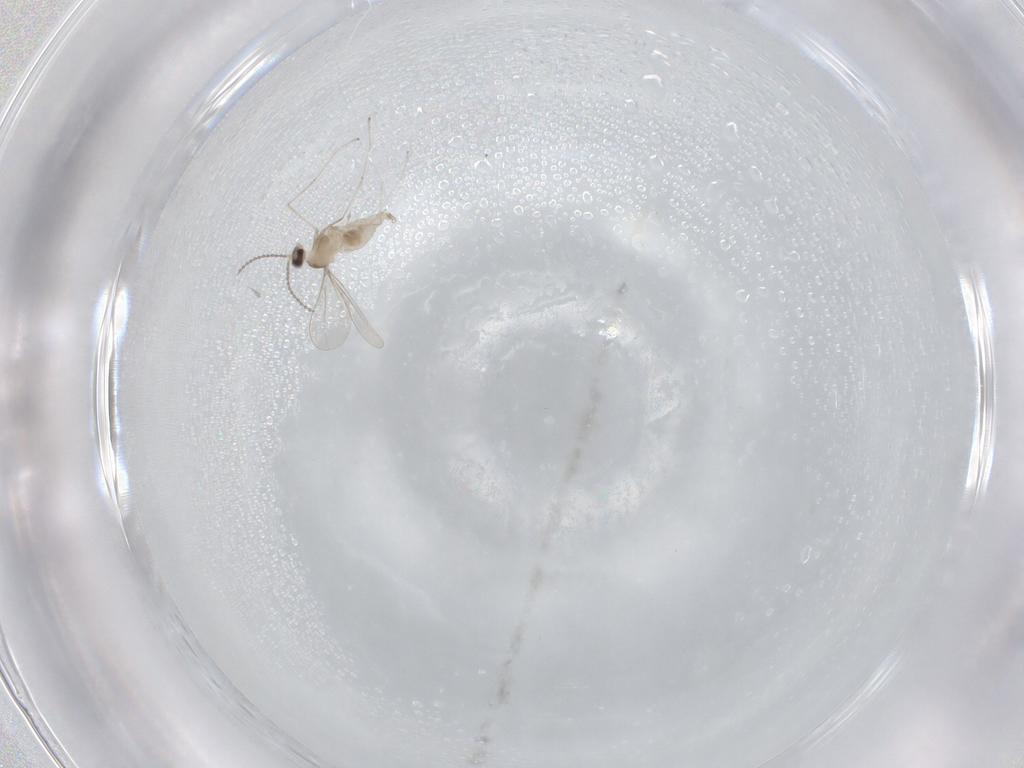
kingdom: Animalia
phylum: Arthropoda
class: Insecta
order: Diptera
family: Cecidomyiidae
